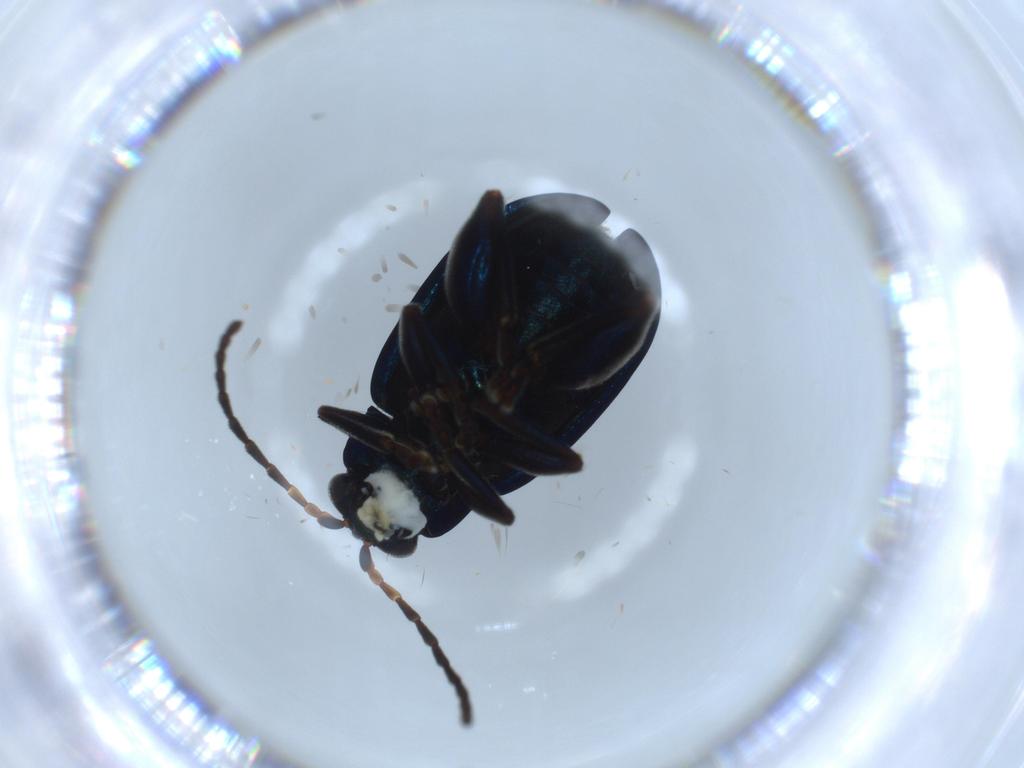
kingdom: Animalia
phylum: Arthropoda
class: Insecta
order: Coleoptera
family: Chrysomelidae
